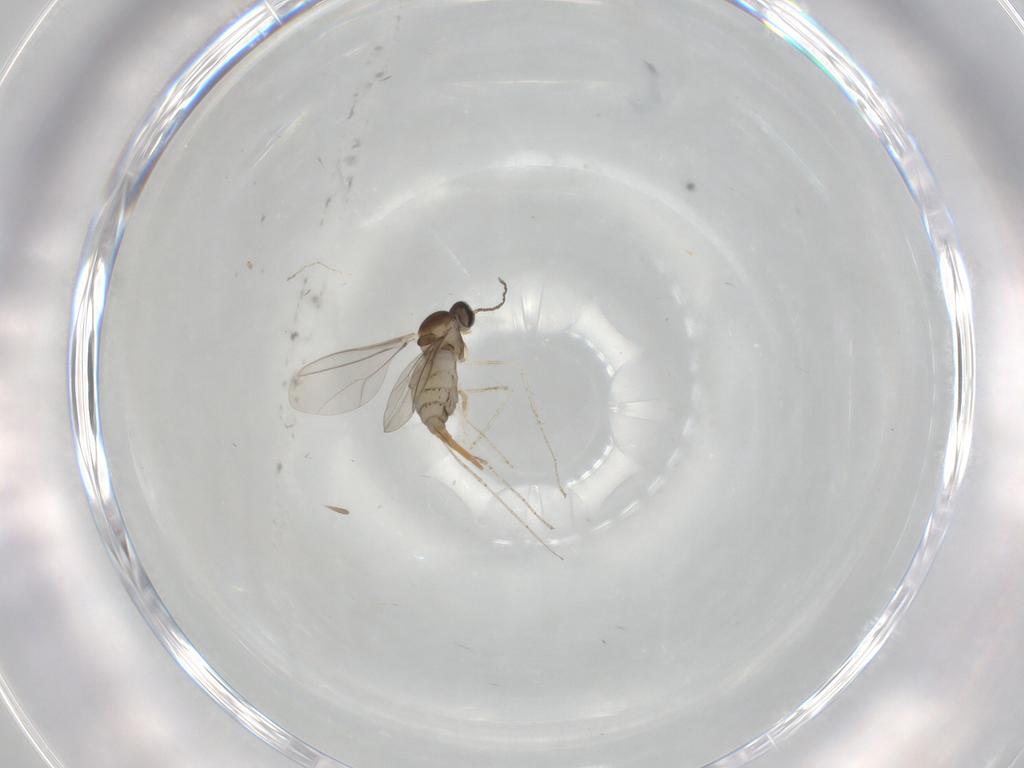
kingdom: Animalia
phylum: Arthropoda
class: Insecta
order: Diptera
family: Cecidomyiidae
